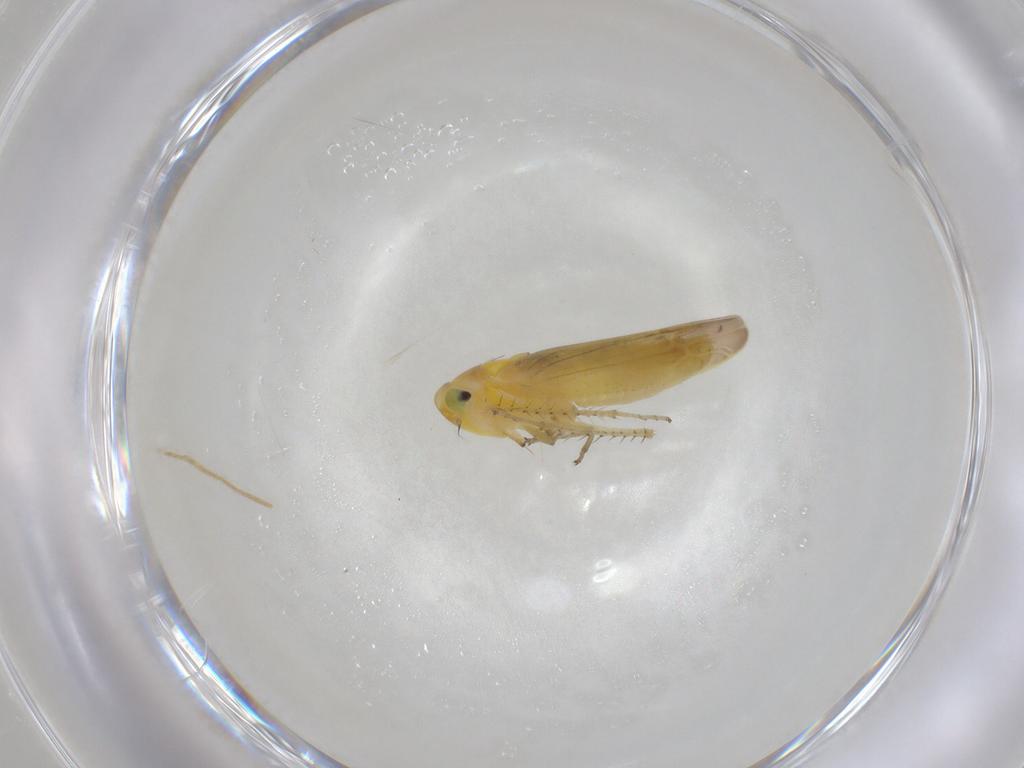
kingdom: Animalia
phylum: Arthropoda
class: Insecta
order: Hemiptera
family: Cicadellidae
